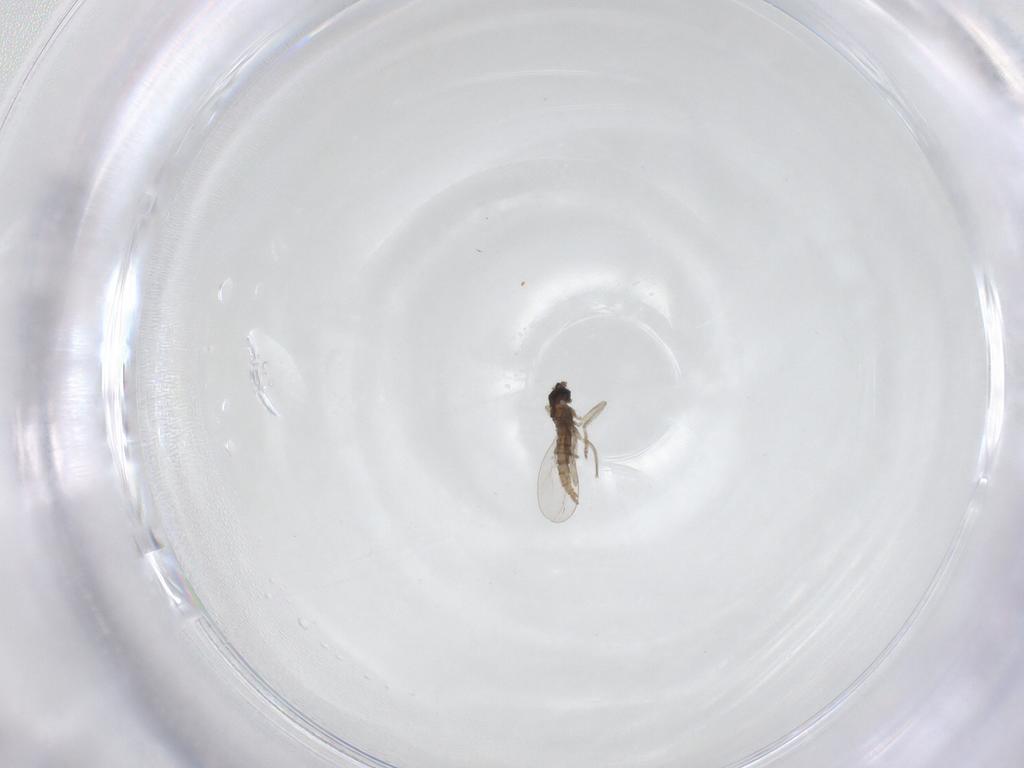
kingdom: Animalia
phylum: Arthropoda
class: Insecta
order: Diptera
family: Cecidomyiidae
